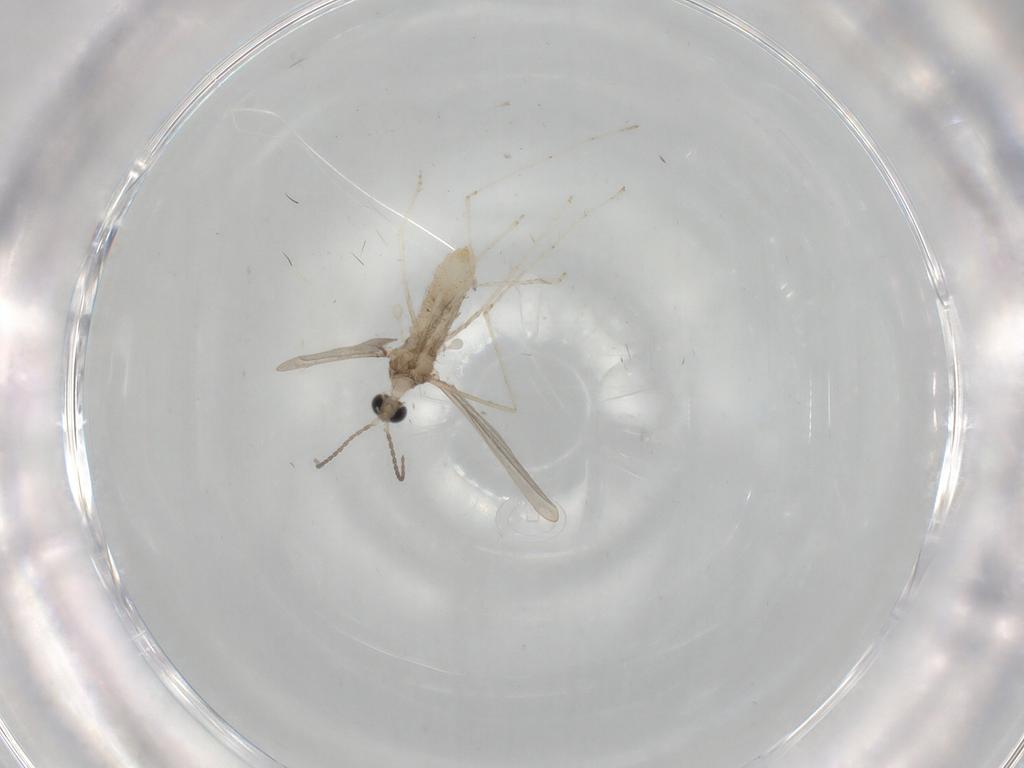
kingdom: Animalia
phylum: Arthropoda
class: Insecta
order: Diptera
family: Cecidomyiidae
